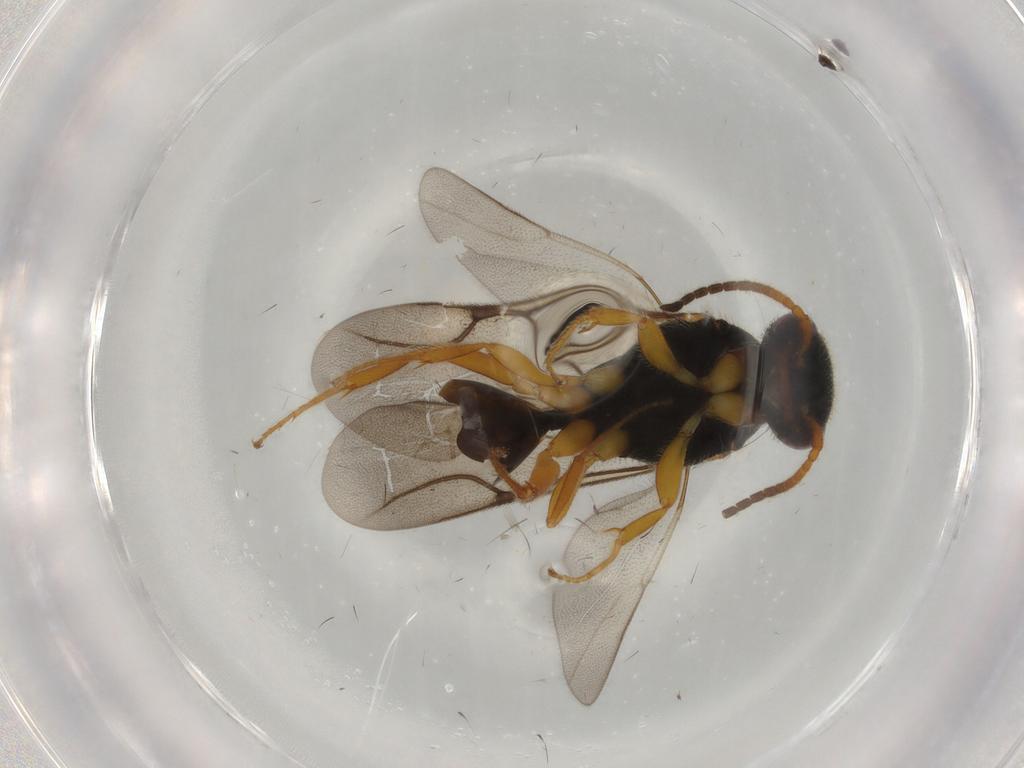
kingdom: Animalia
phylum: Arthropoda
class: Insecta
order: Hymenoptera
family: Bethylidae
